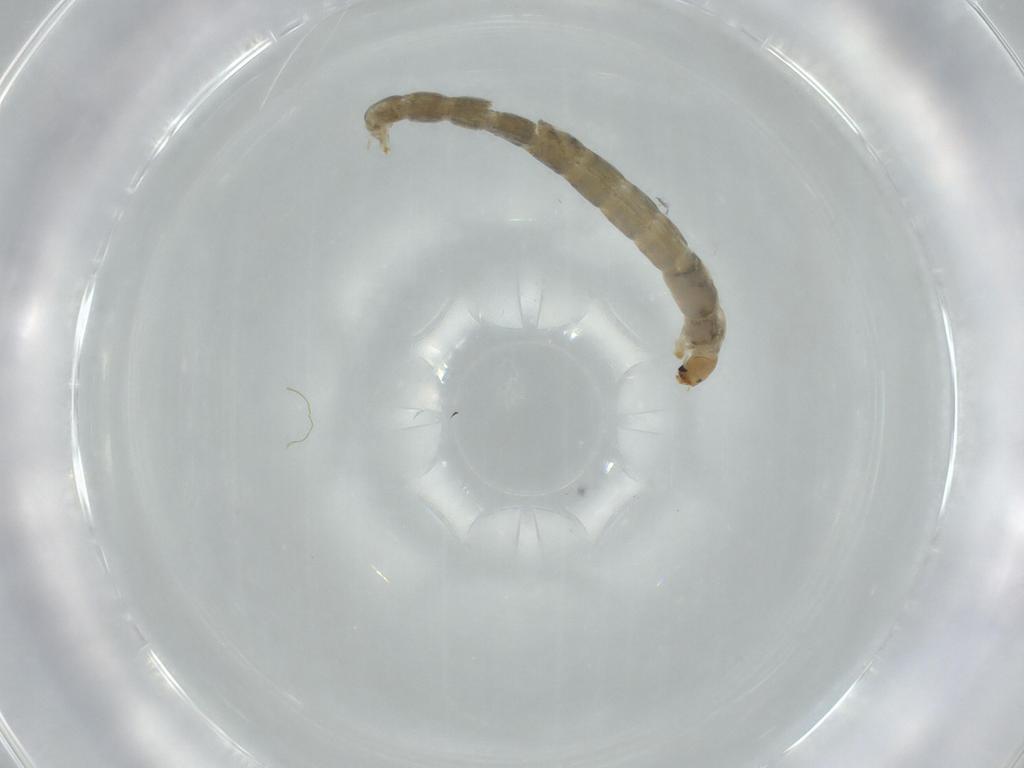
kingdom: Animalia
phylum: Arthropoda
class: Insecta
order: Diptera
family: Chironomidae
